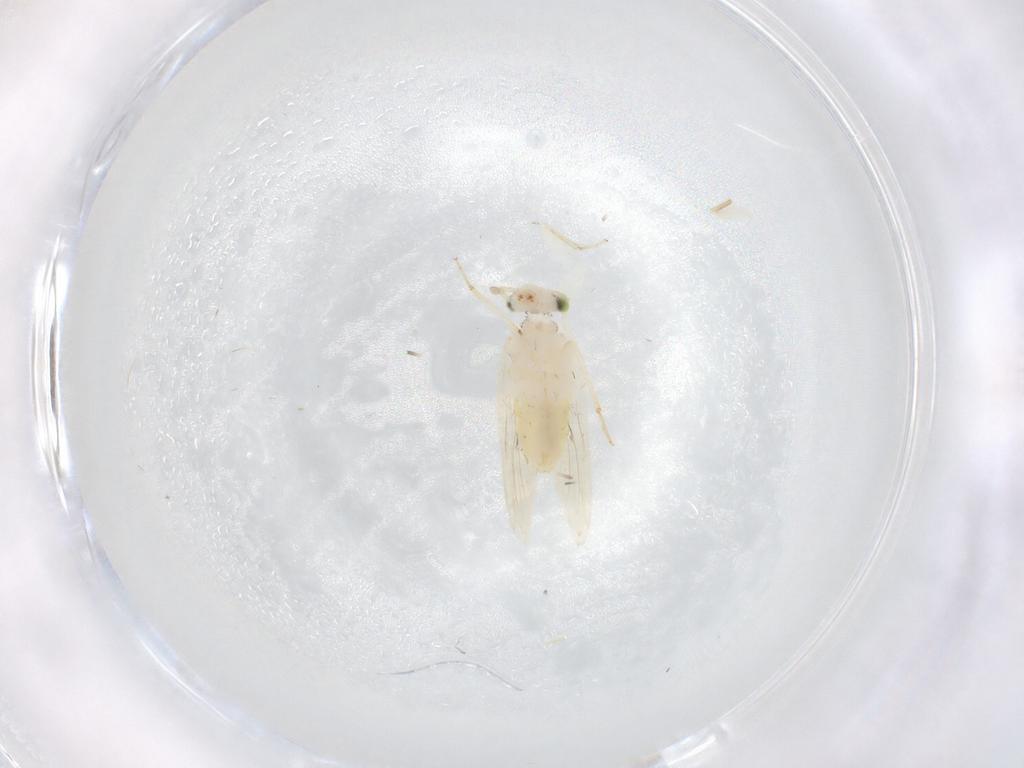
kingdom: Animalia
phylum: Arthropoda
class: Insecta
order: Psocodea
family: Lepidopsocidae
